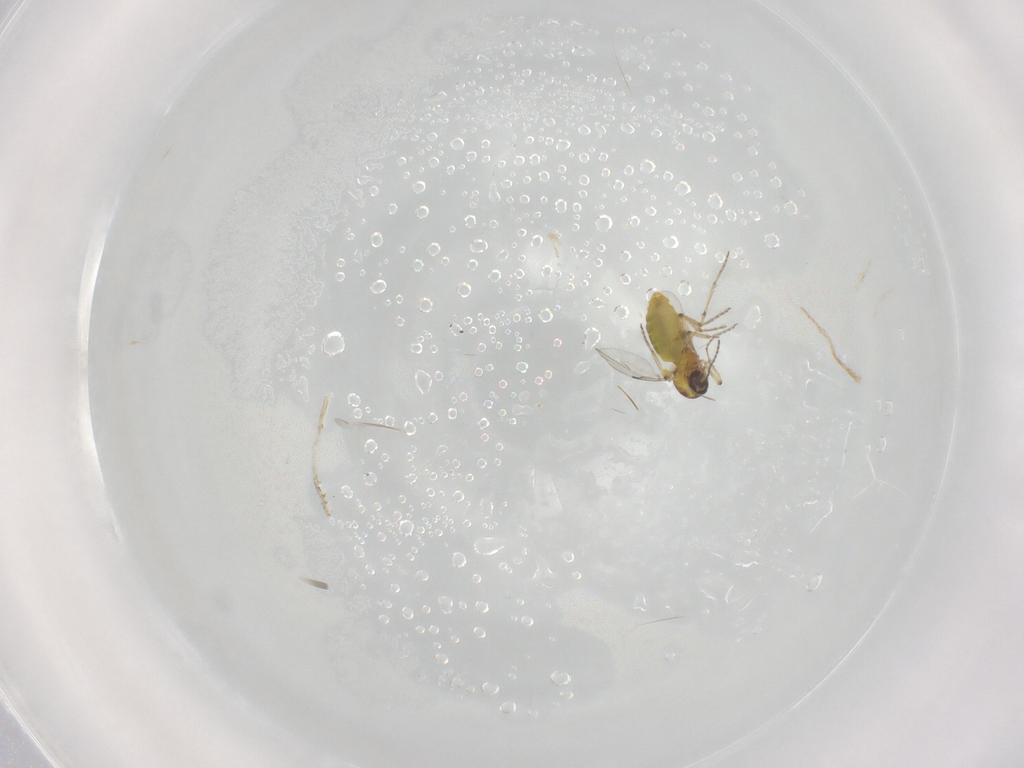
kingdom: Animalia
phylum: Arthropoda
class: Insecta
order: Diptera
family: Ceratopogonidae
